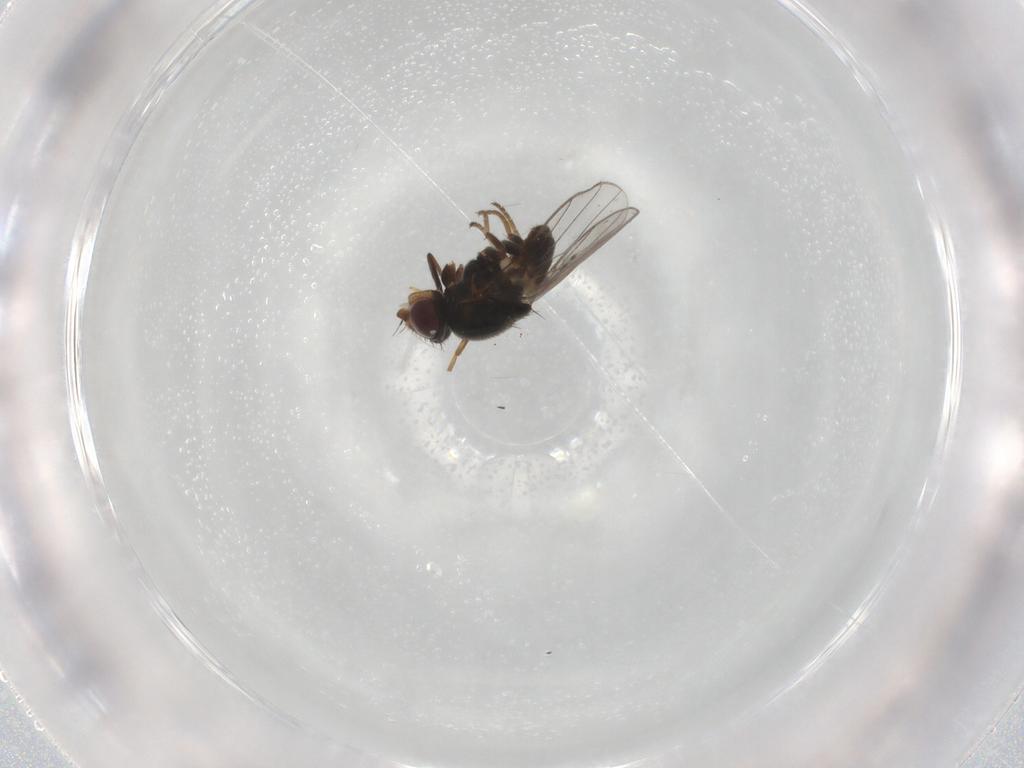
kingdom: Animalia
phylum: Arthropoda
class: Insecta
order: Diptera
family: Chloropidae
